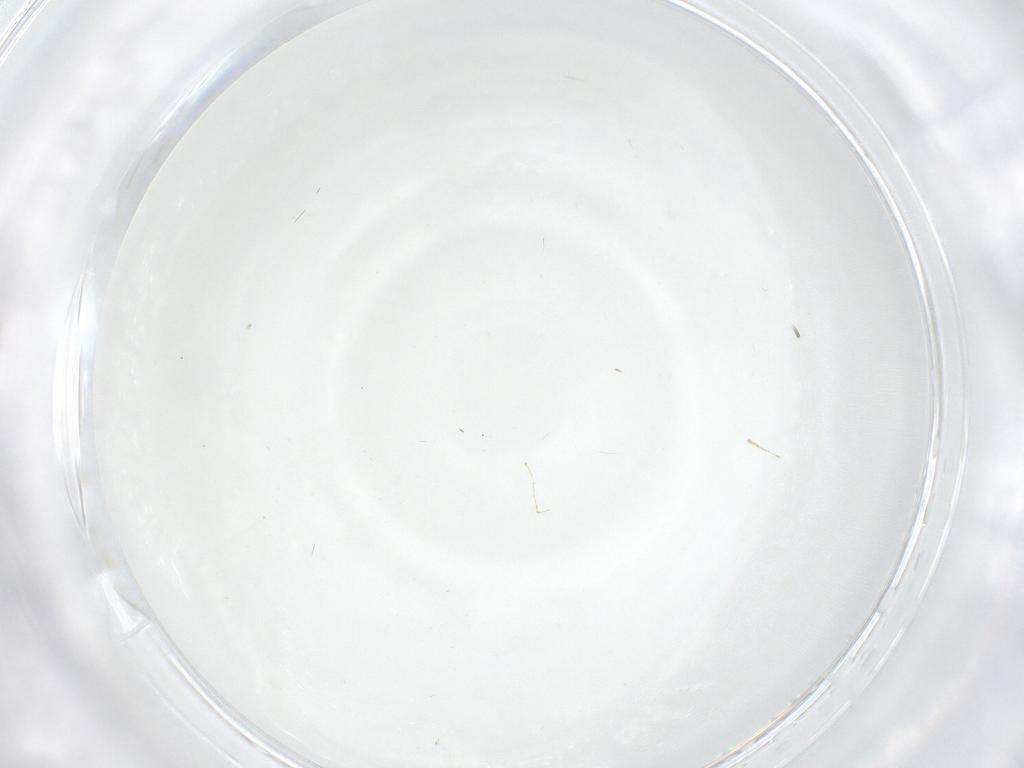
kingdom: Animalia
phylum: Arthropoda
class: Insecta
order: Diptera
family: Cecidomyiidae
